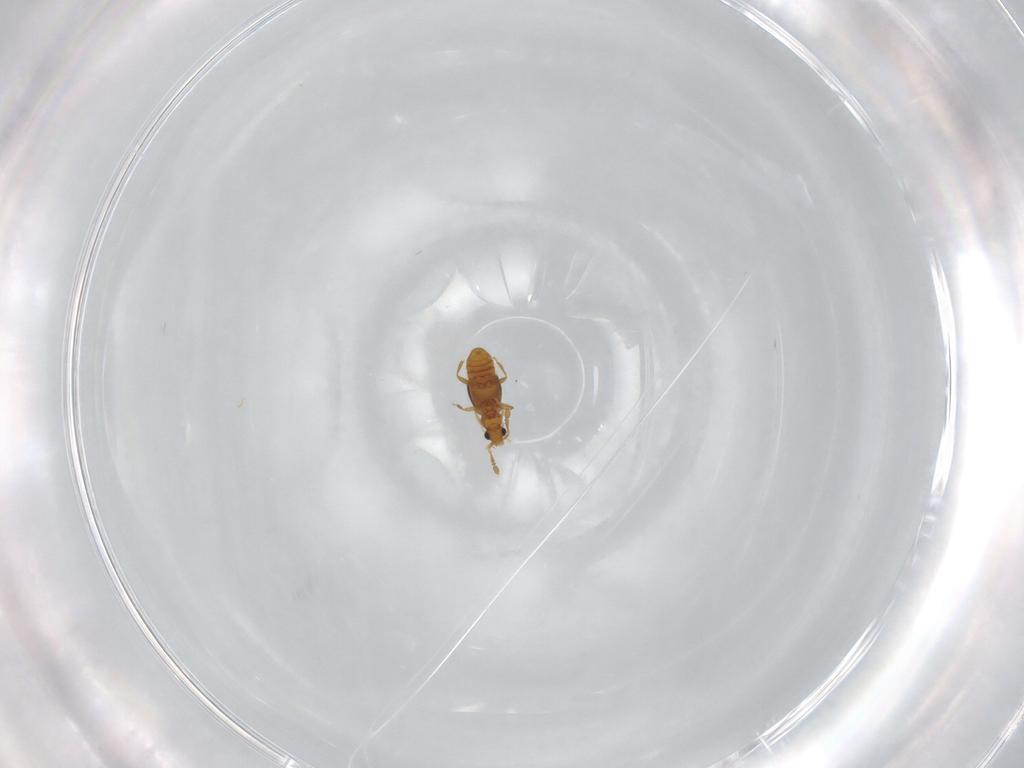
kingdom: Animalia
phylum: Arthropoda
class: Insecta
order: Coleoptera
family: Staphylinidae
